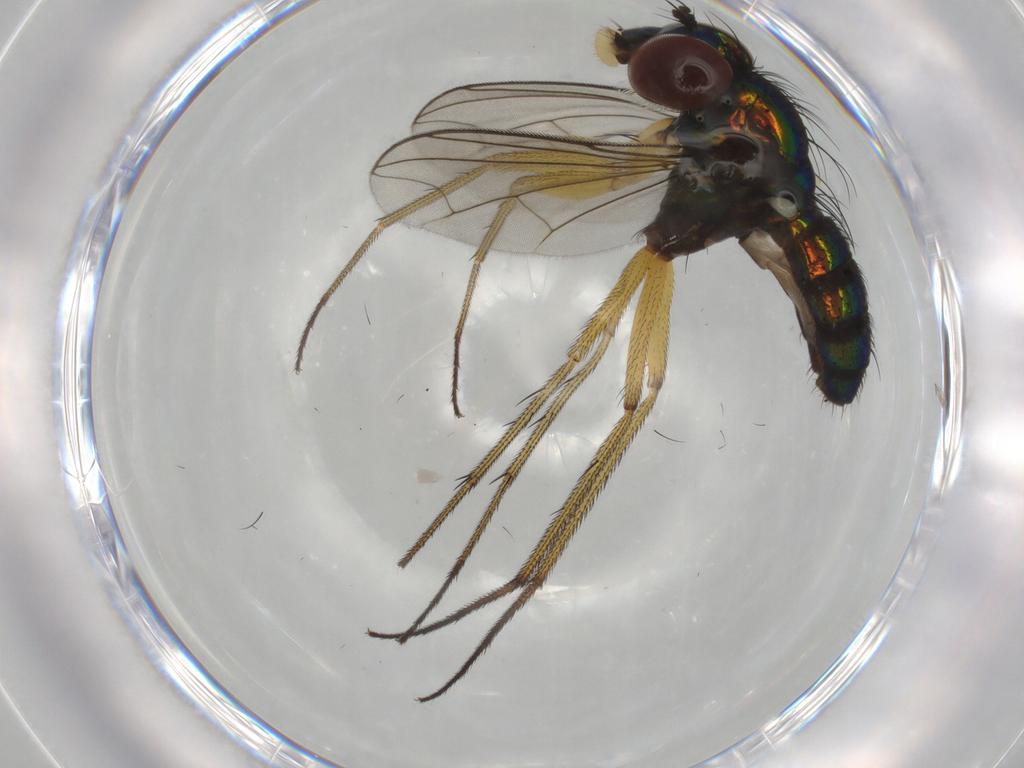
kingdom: Animalia
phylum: Arthropoda
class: Insecta
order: Diptera
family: Dolichopodidae
